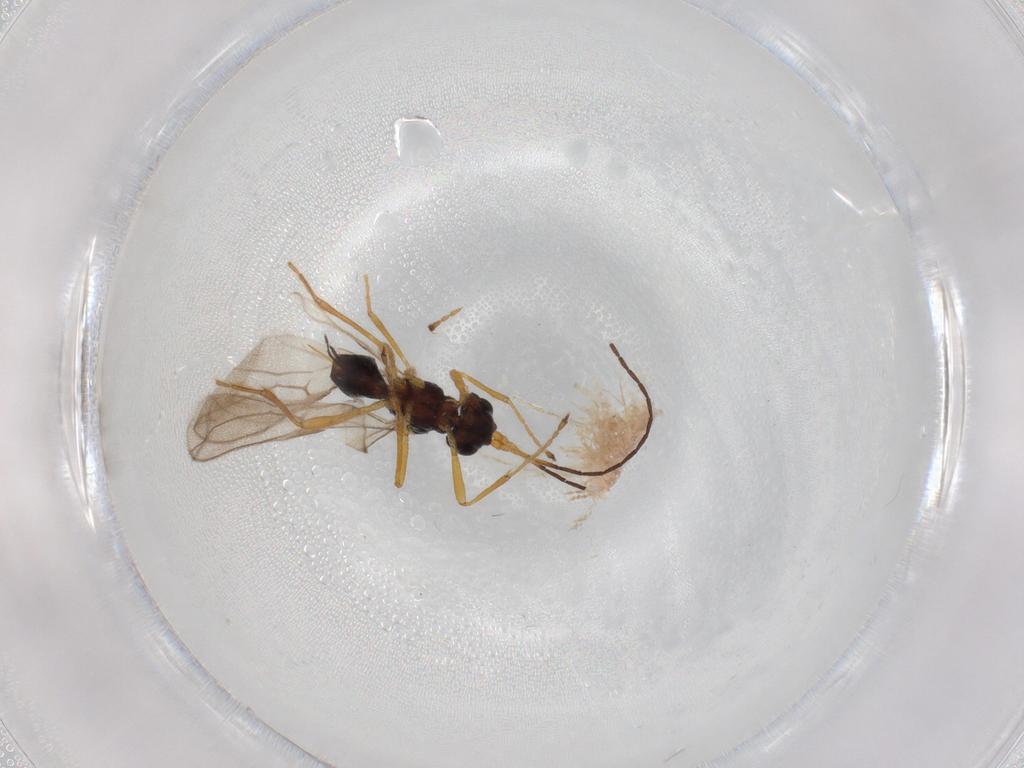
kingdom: Animalia
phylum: Arthropoda
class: Insecta
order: Hymenoptera
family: Braconidae
